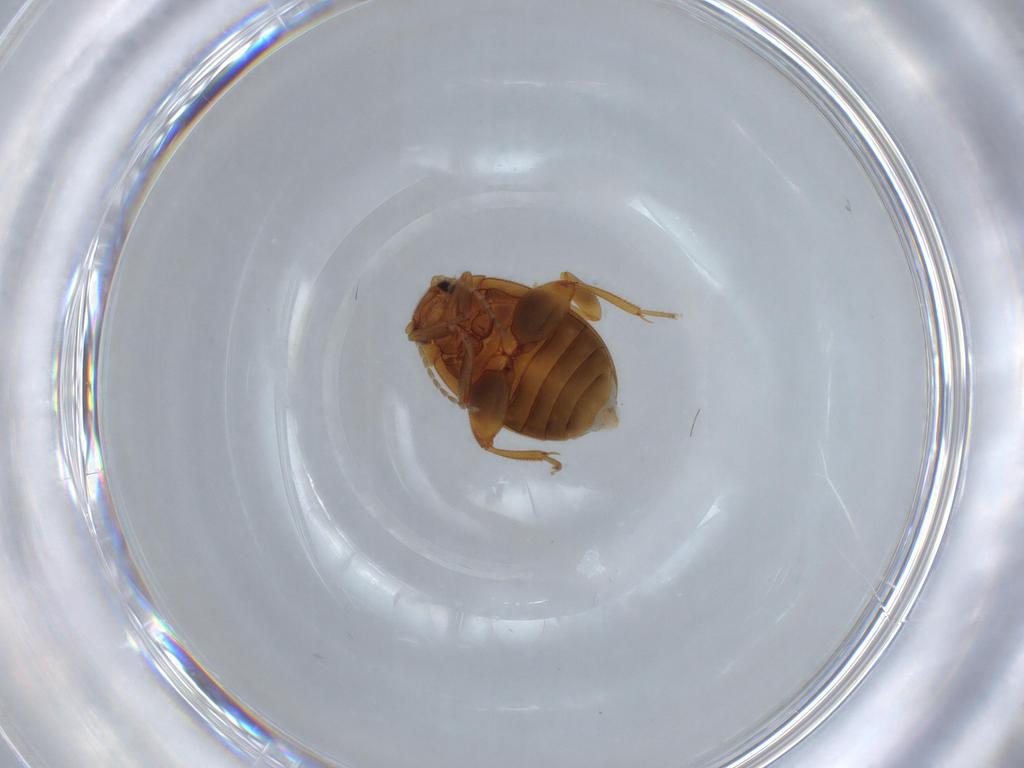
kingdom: Animalia
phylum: Arthropoda
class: Insecta
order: Coleoptera
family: Scirtidae
